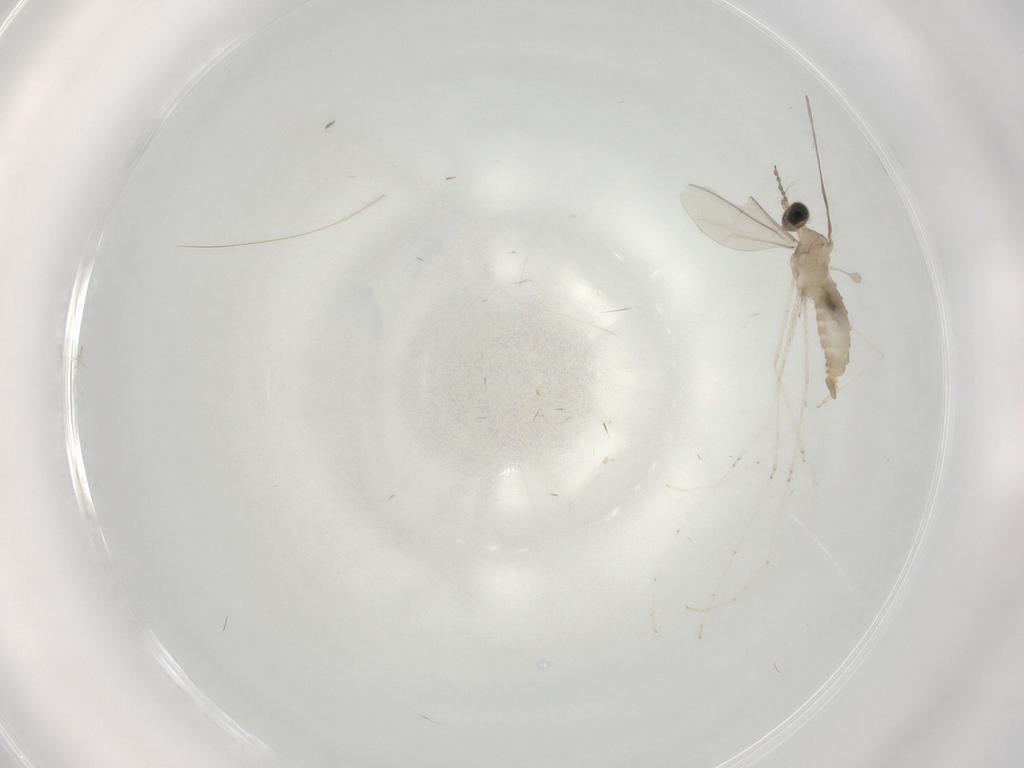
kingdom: Animalia
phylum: Arthropoda
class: Insecta
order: Diptera
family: Cecidomyiidae
